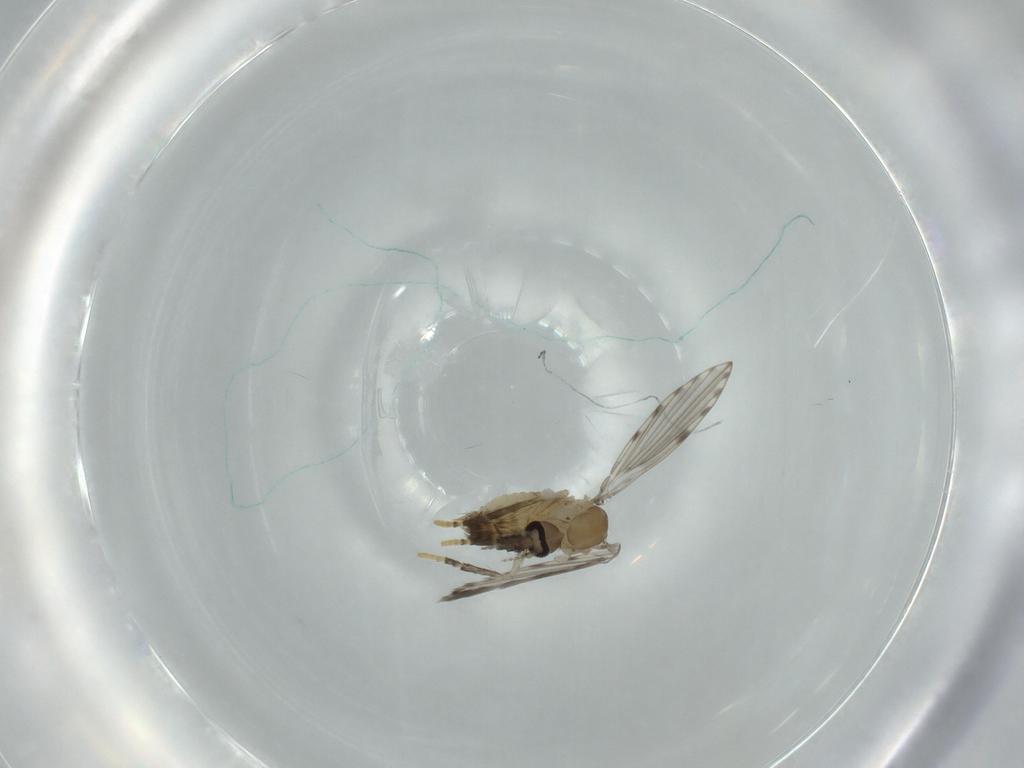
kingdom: Animalia
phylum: Arthropoda
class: Insecta
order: Diptera
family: Psychodidae
